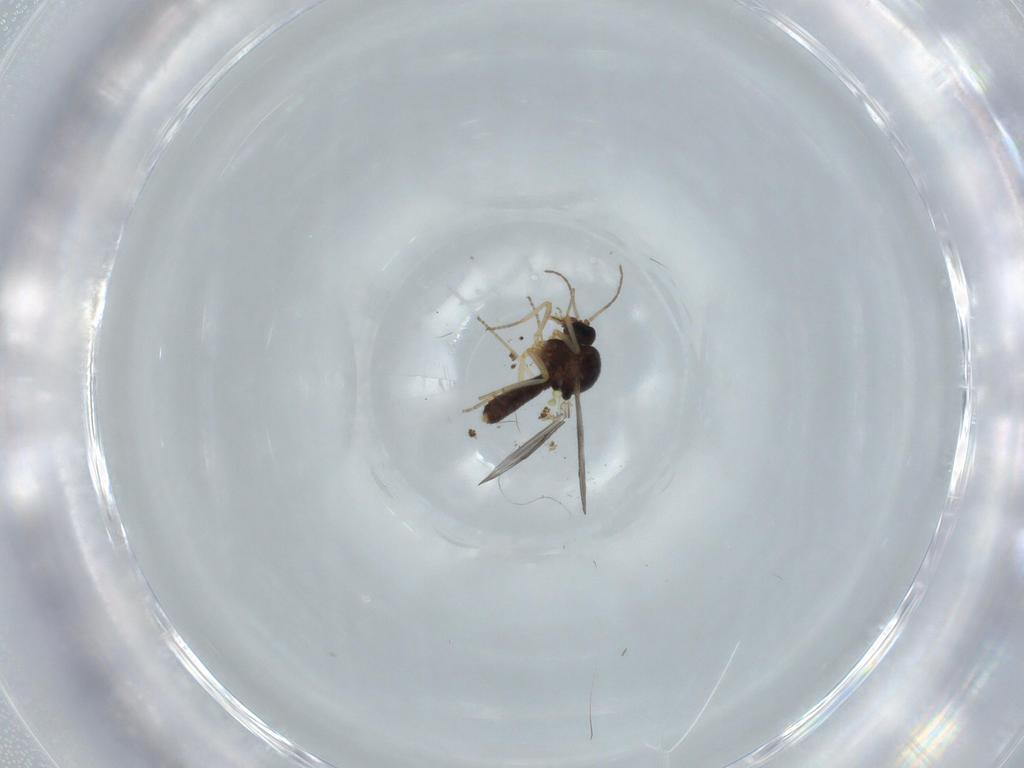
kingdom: Animalia
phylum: Arthropoda
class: Insecta
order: Diptera
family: Ceratopogonidae
